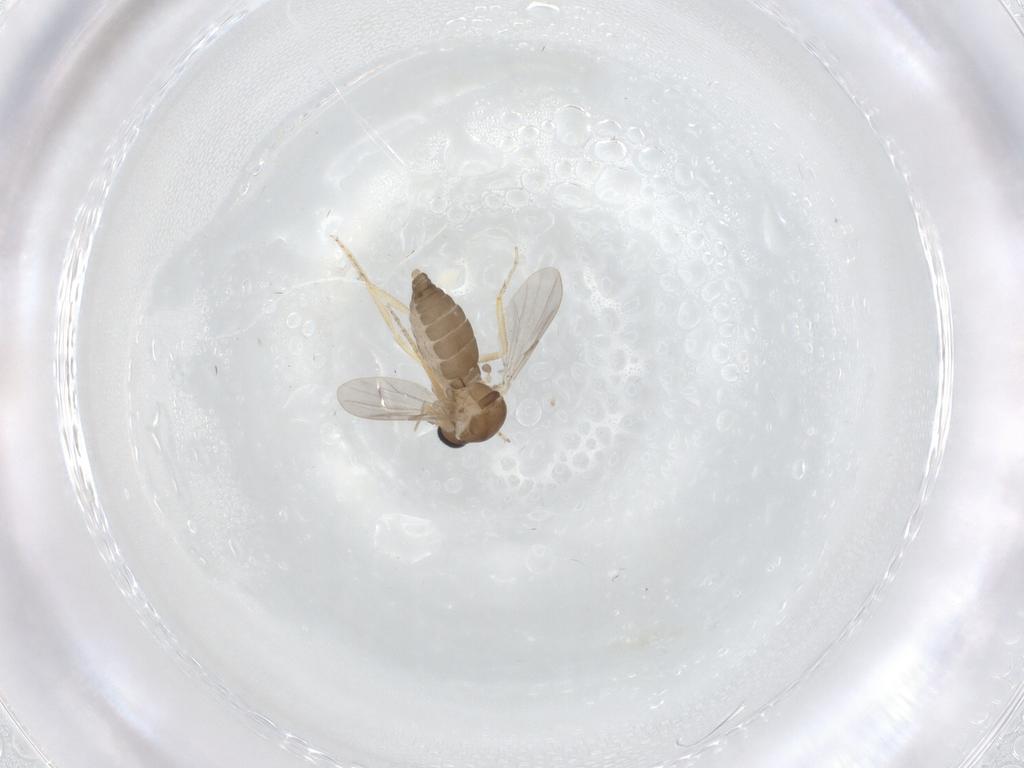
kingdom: Animalia
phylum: Arthropoda
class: Insecta
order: Diptera
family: Ceratopogonidae
